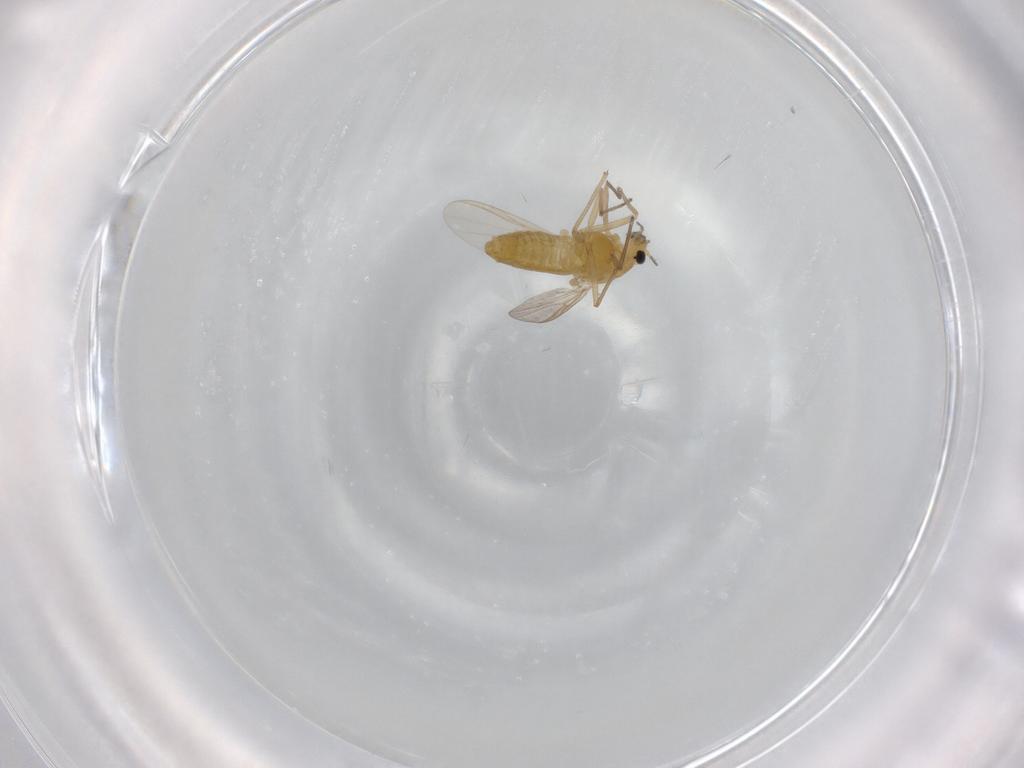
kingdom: Animalia
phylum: Arthropoda
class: Insecta
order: Diptera
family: Chironomidae
